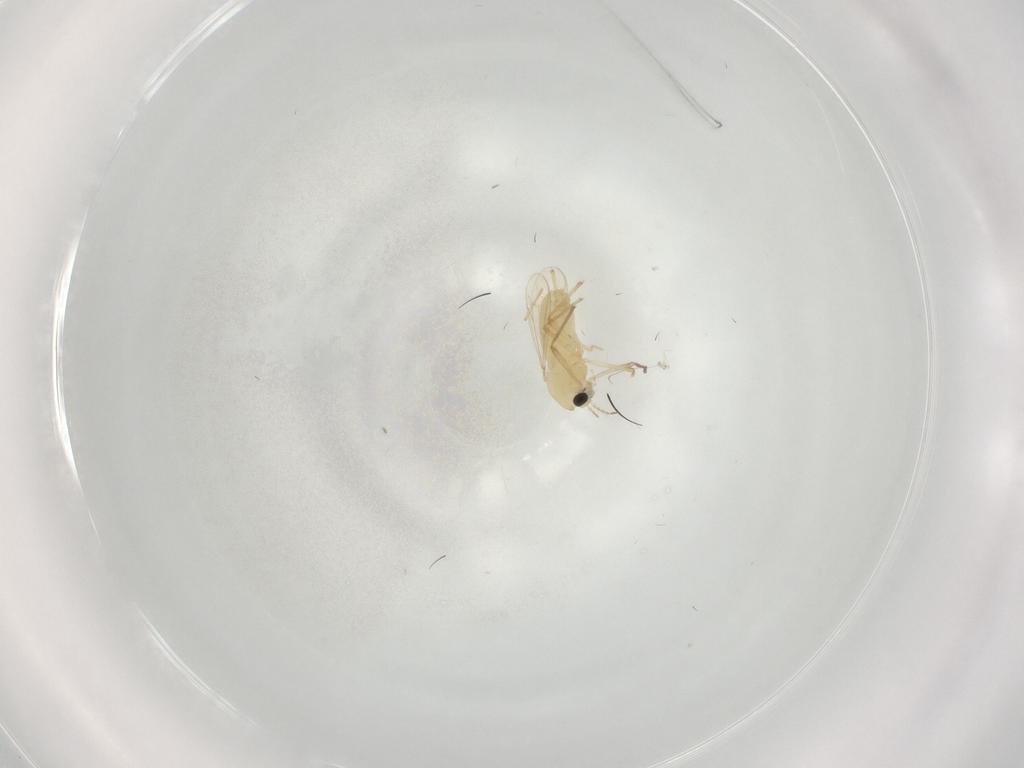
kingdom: Animalia
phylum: Arthropoda
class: Insecta
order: Diptera
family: Chironomidae
